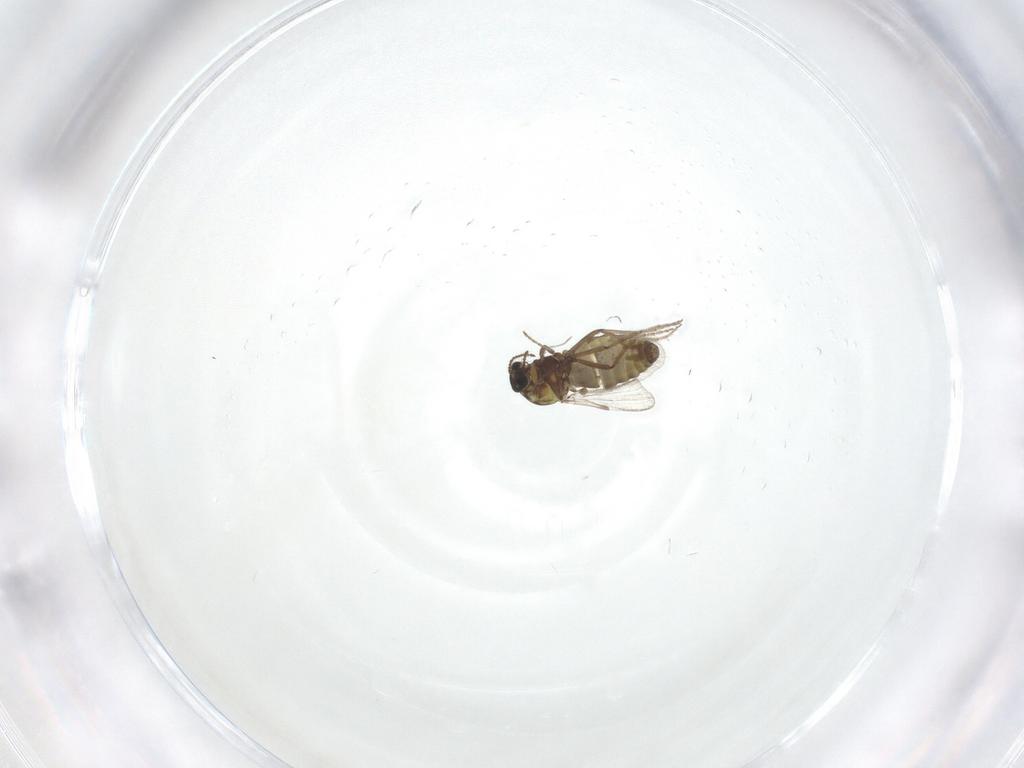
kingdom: Animalia
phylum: Arthropoda
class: Insecta
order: Diptera
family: Ceratopogonidae
